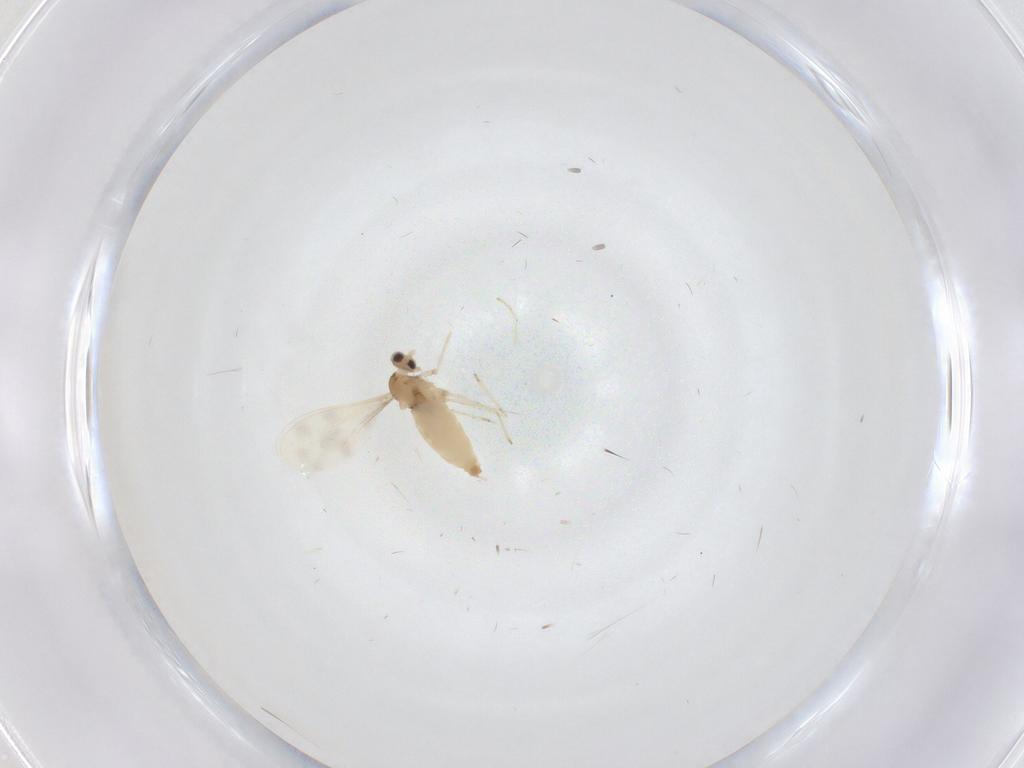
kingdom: Animalia
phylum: Arthropoda
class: Insecta
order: Diptera
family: Cecidomyiidae
